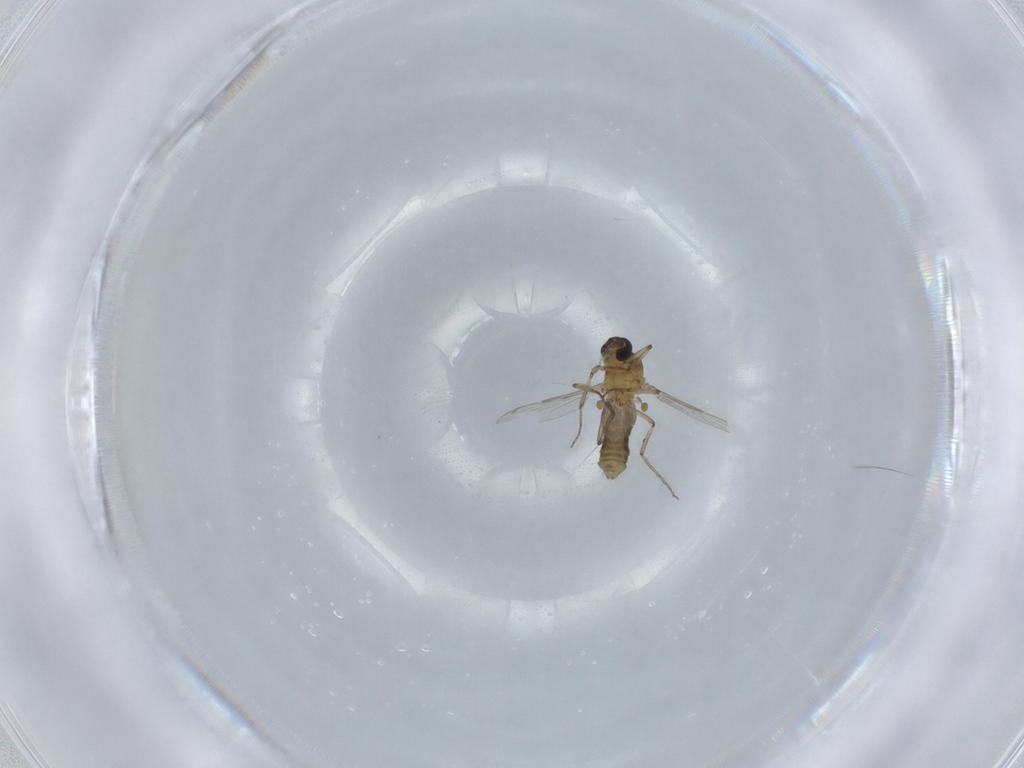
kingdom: Animalia
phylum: Arthropoda
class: Insecta
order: Diptera
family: Ceratopogonidae
